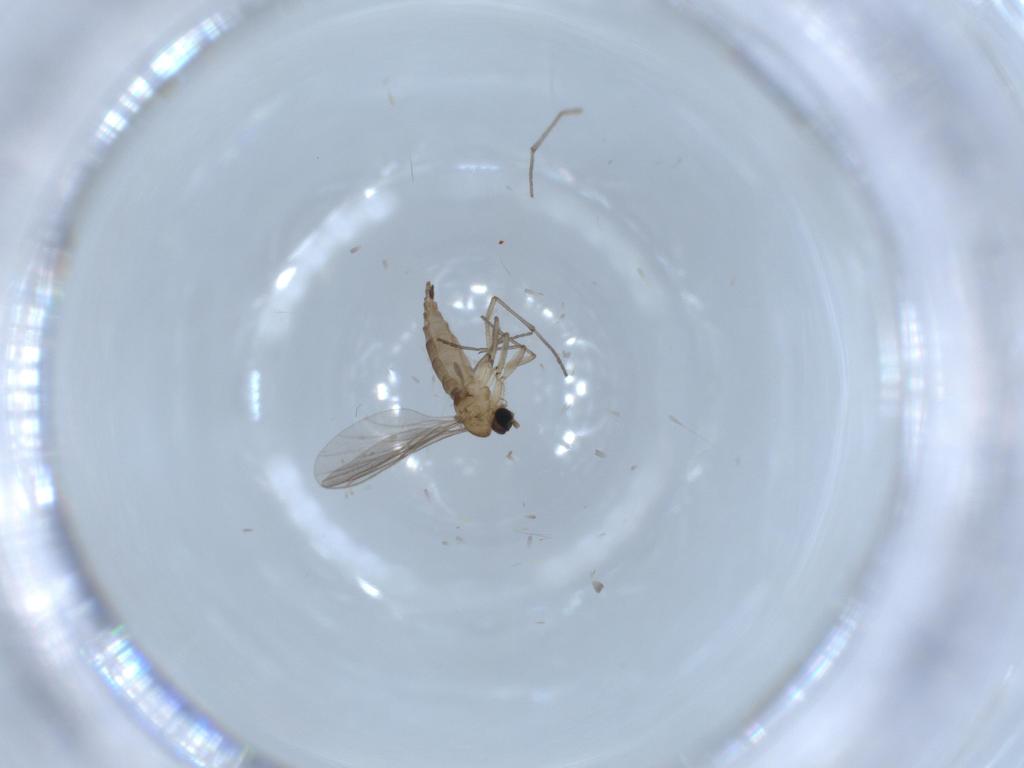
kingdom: Animalia
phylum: Arthropoda
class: Insecta
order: Diptera
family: Sciaridae
